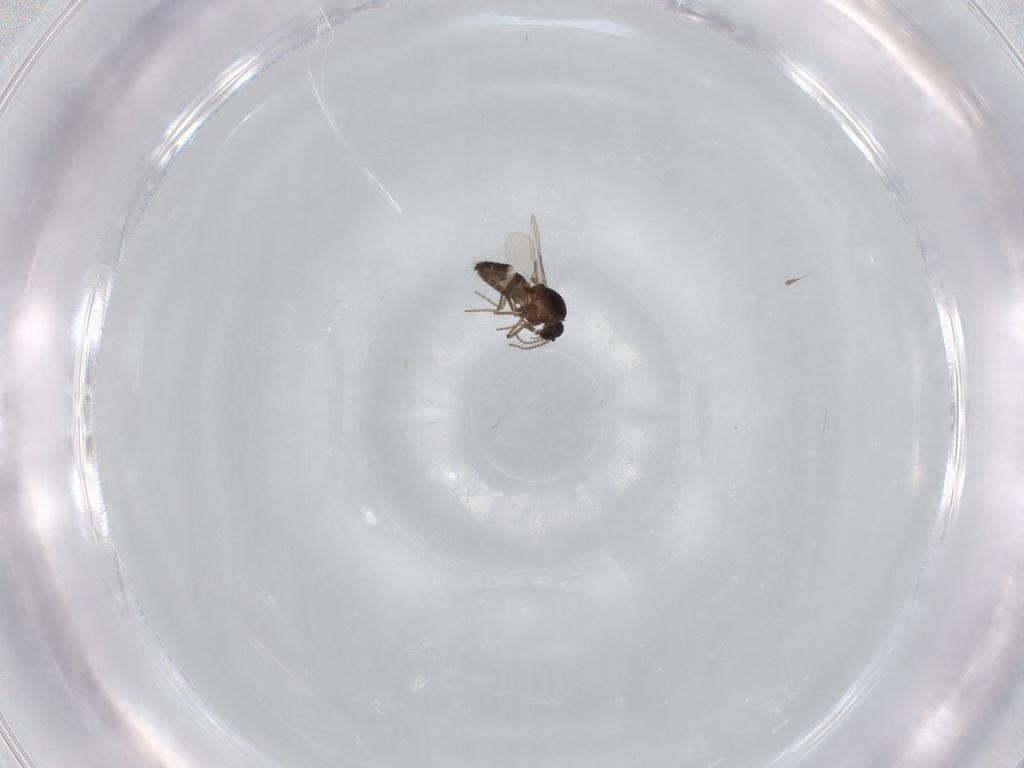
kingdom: Animalia
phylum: Arthropoda
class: Insecta
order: Diptera
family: Ceratopogonidae
